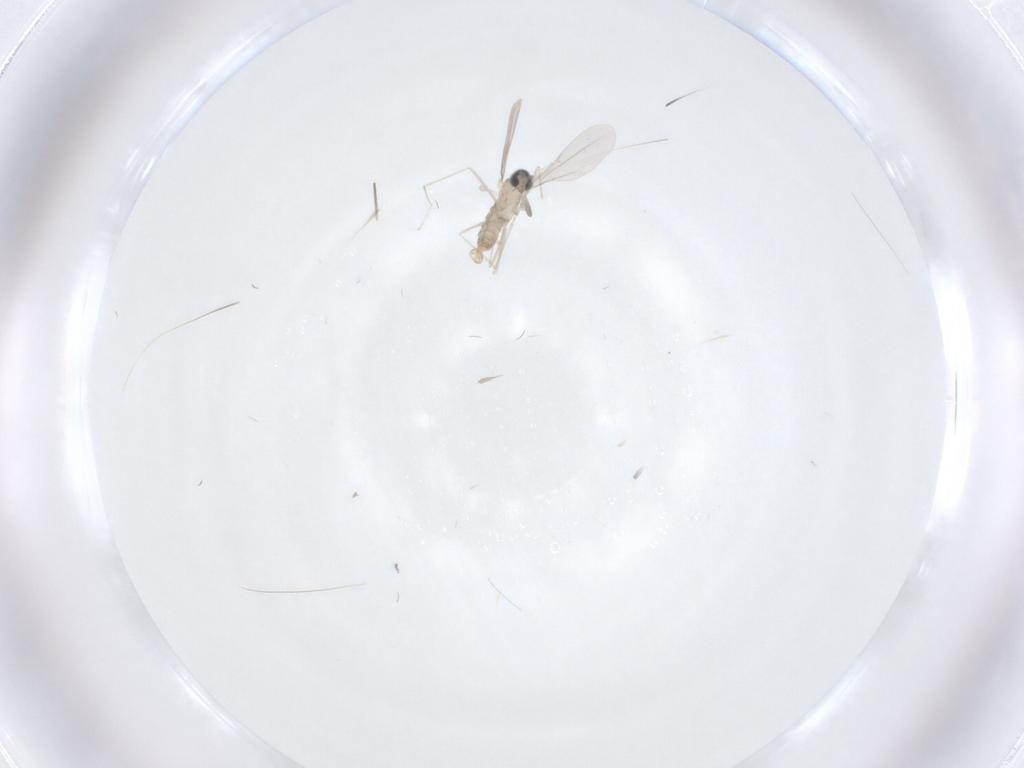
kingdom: Animalia
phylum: Arthropoda
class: Insecta
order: Diptera
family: Cecidomyiidae
